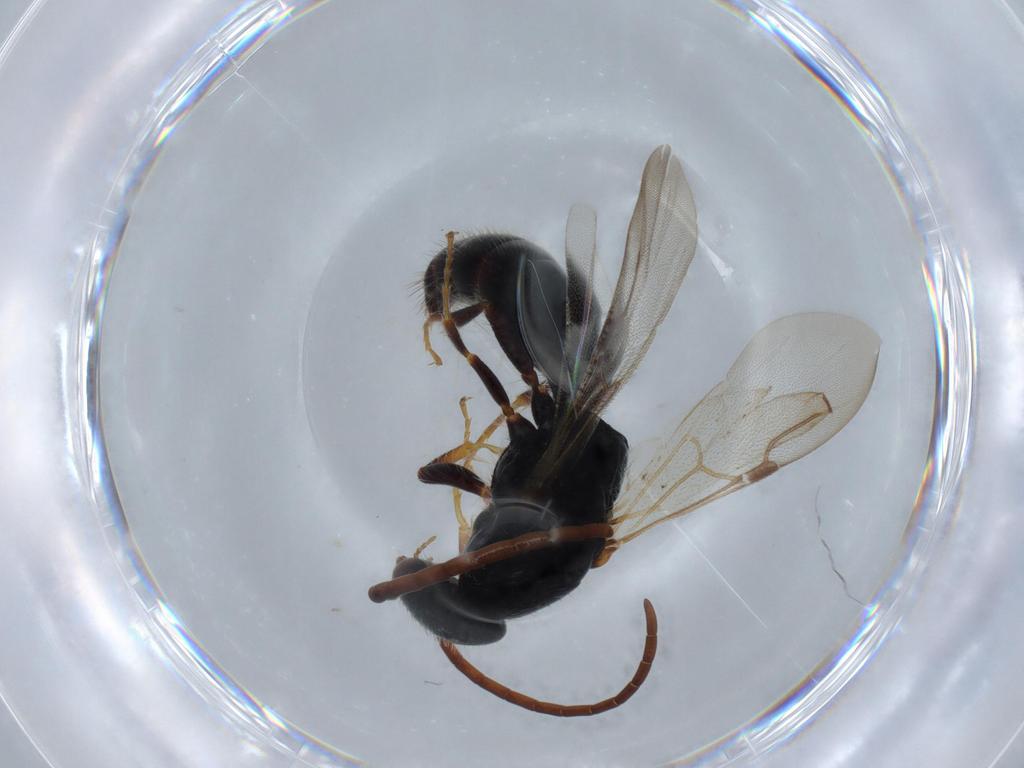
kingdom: Animalia
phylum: Arthropoda
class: Insecta
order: Hymenoptera
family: Bethylidae
